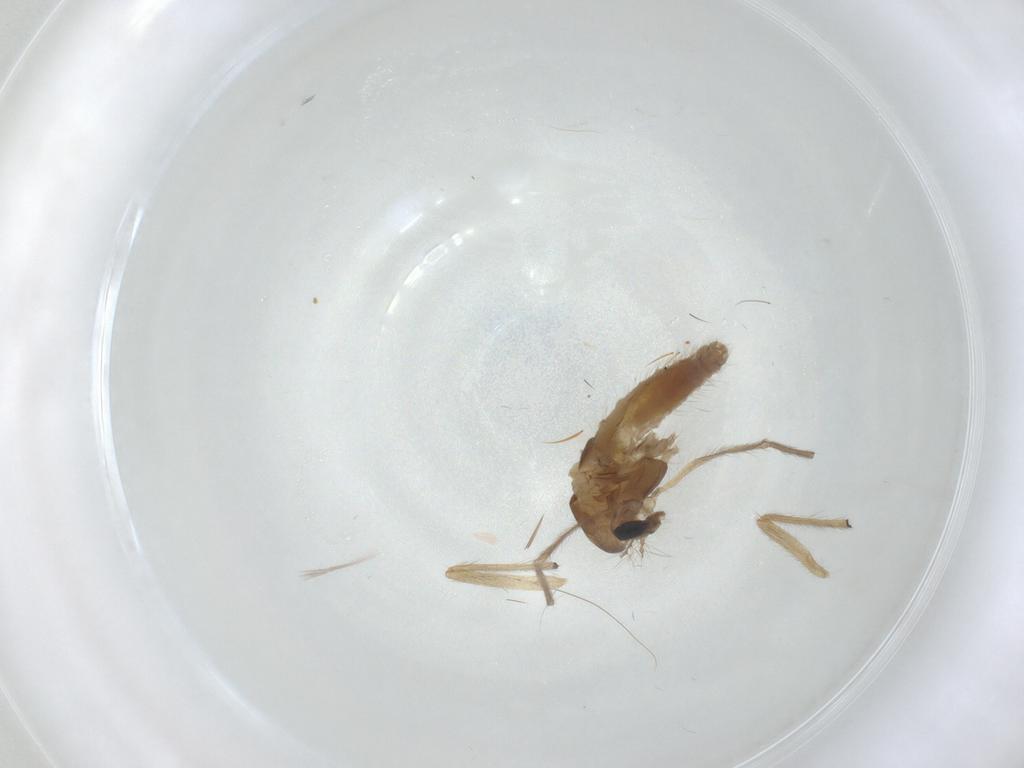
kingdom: Animalia
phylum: Arthropoda
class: Insecta
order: Diptera
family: Chironomidae
